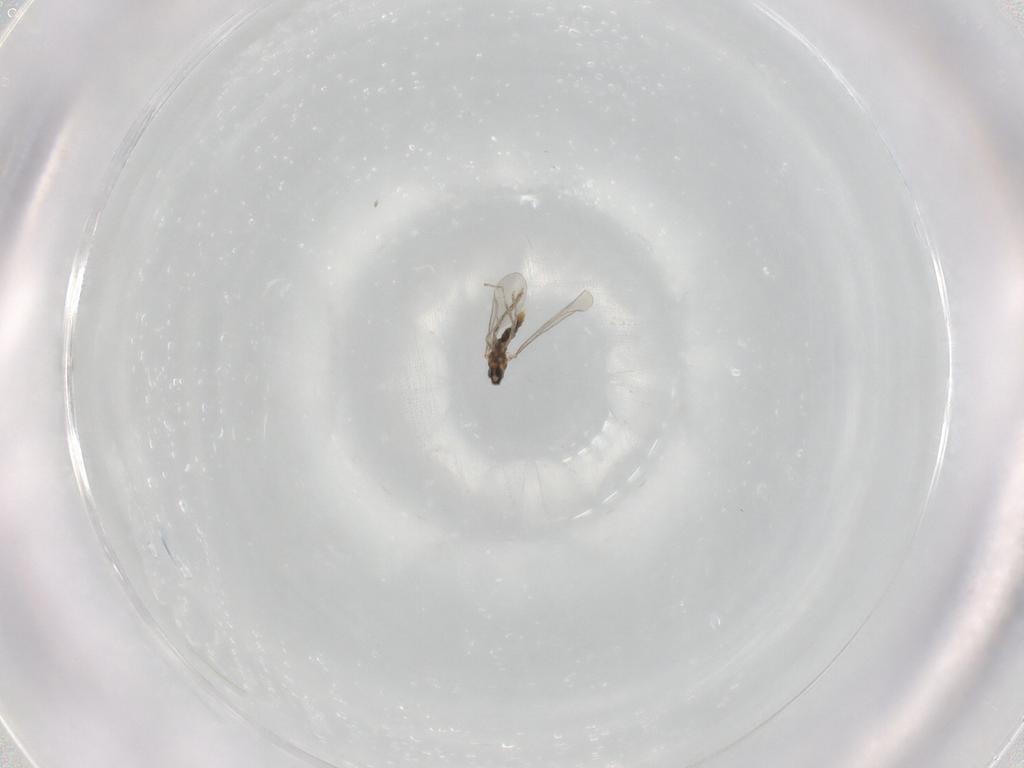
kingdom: Animalia
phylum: Arthropoda
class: Insecta
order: Diptera
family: Cecidomyiidae
